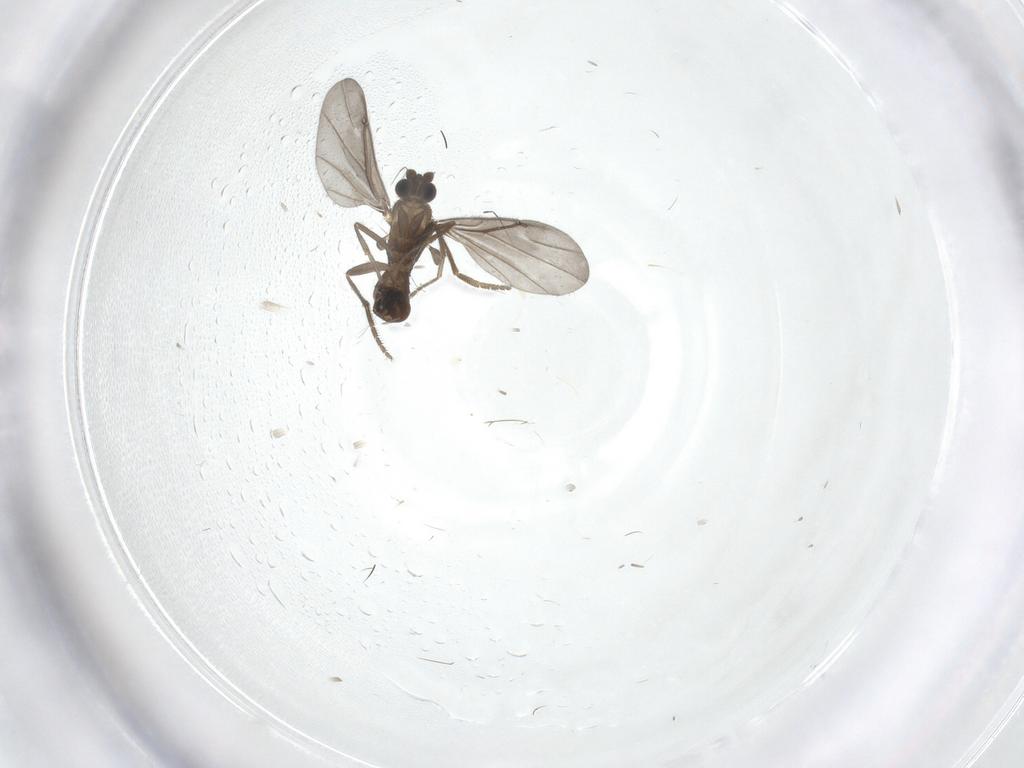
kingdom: Animalia
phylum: Arthropoda
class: Insecta
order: Diptera
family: Phoridae
